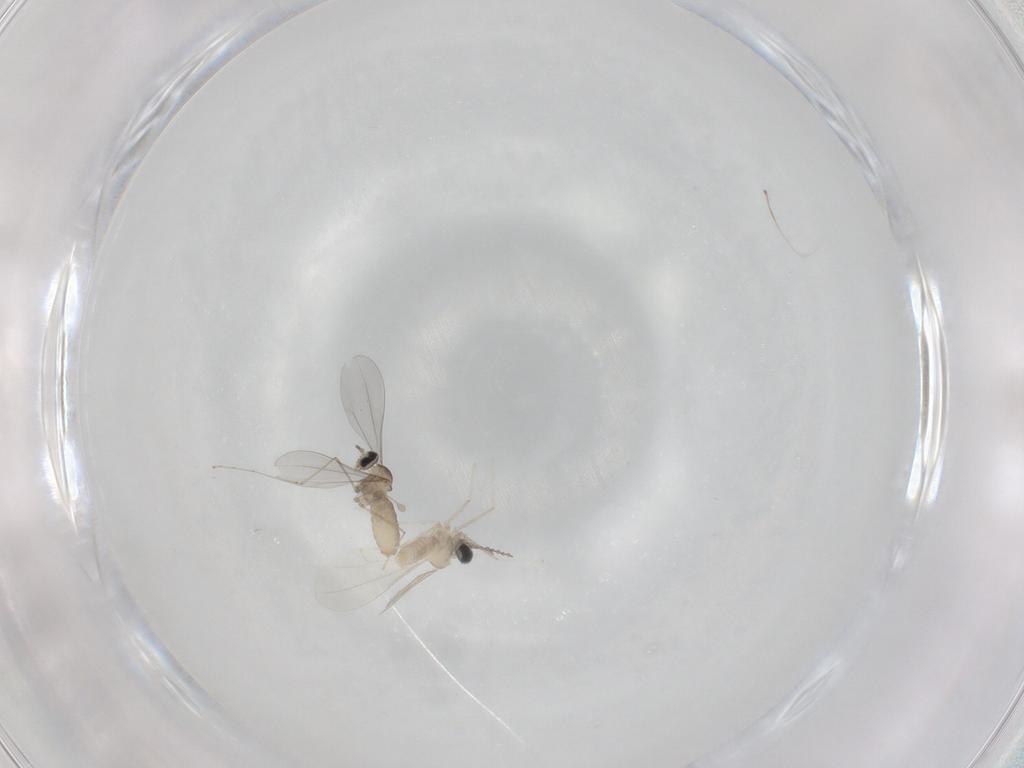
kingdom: Animalia
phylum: Arthropoda
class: Insecta
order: Diptera
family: Cecidomyiidae
